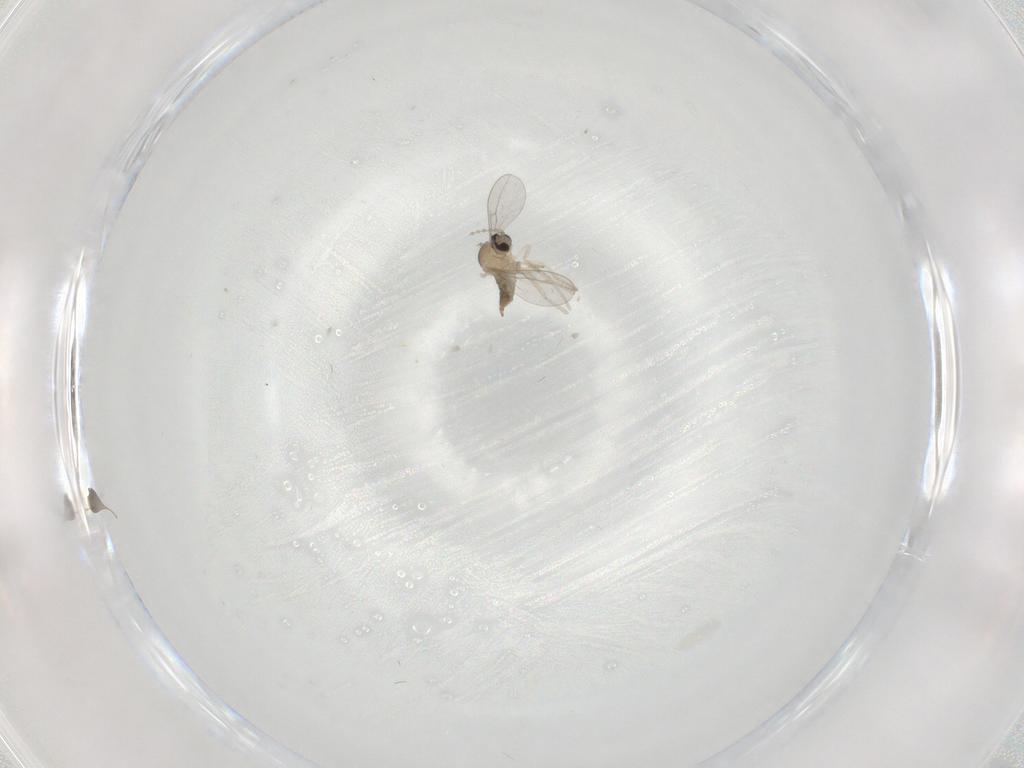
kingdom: Animalia
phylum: Arthropoda
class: Insecta
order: Diptera
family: Cecidomyiidae
